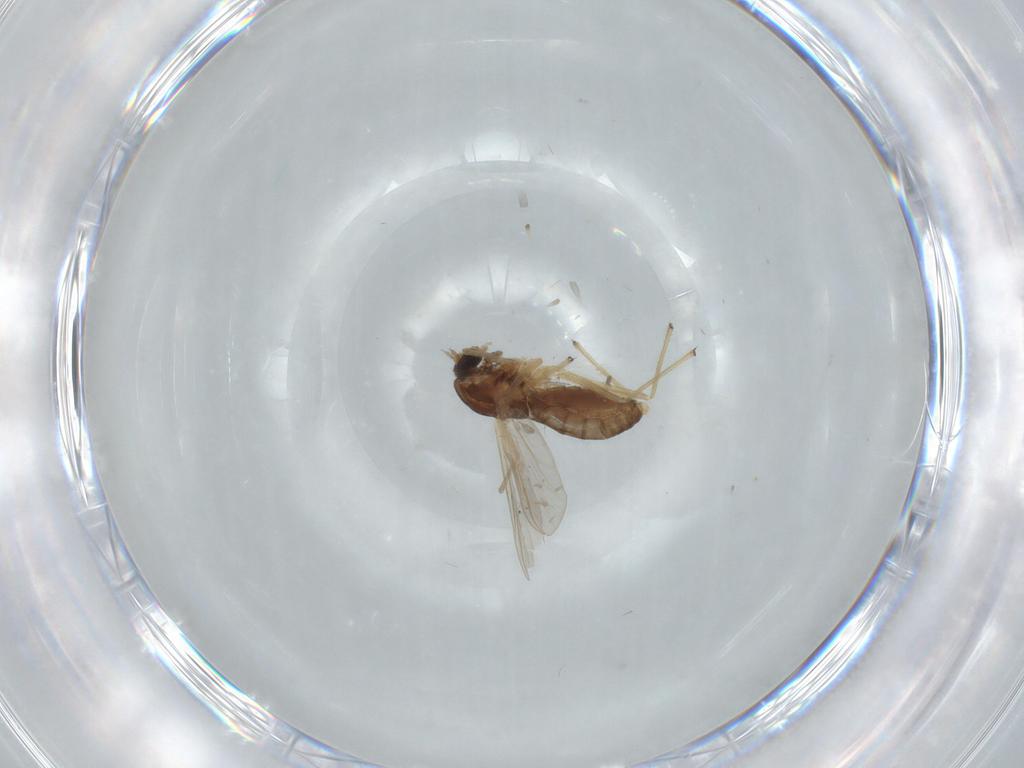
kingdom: Animalia
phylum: Arthropoda
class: Insecta
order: Diptera
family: Chironomidae
